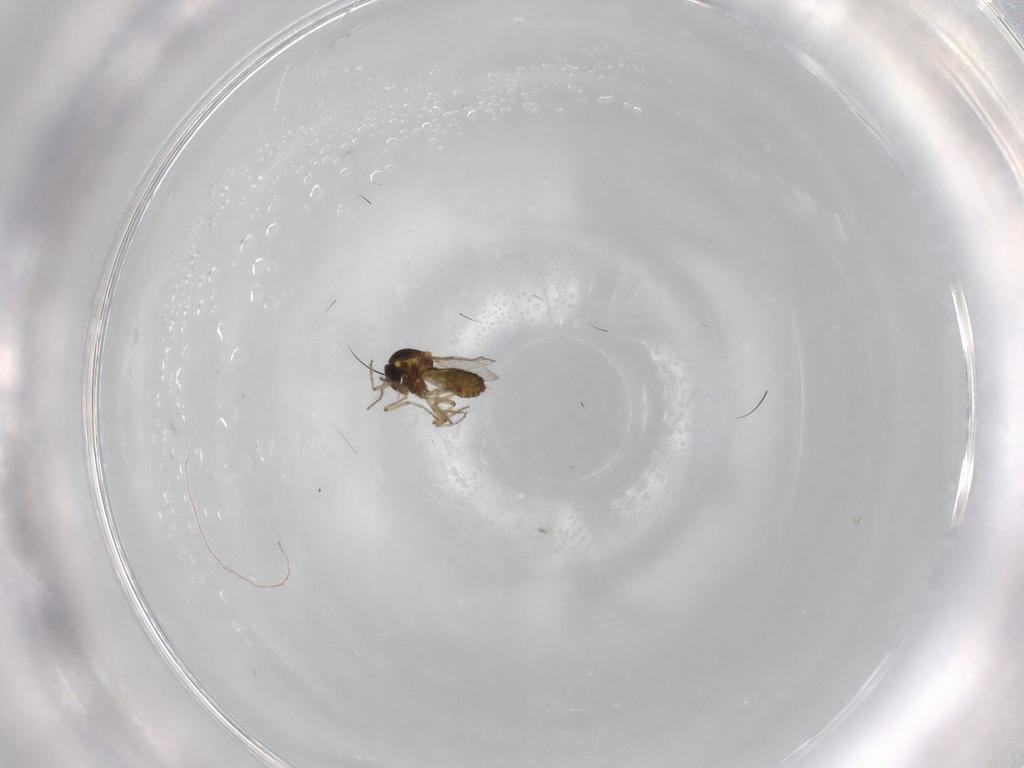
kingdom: Animalia
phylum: Arthropoda
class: Insecta
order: Diptera
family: Ceratopogonidae
